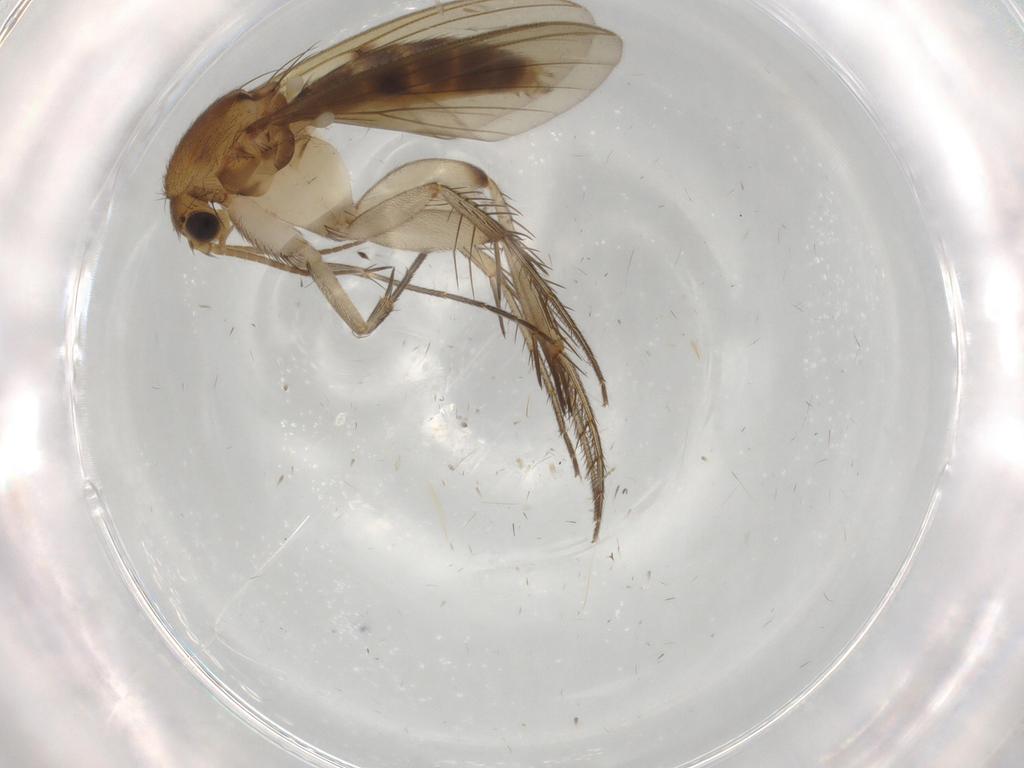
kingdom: Animalia
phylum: Arthropoda
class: Insecta
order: Diptera
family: Mycetophilidae
